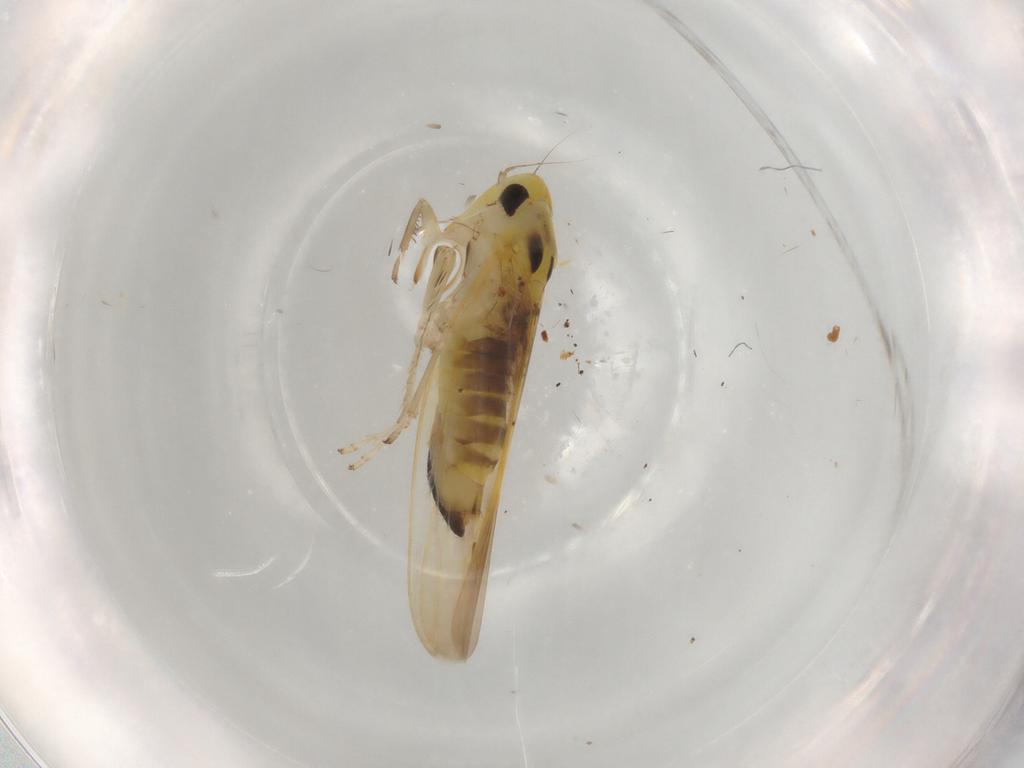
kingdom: Animalia
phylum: Arthropoda
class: Insecta
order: Hemiptera
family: Cicadellidae
